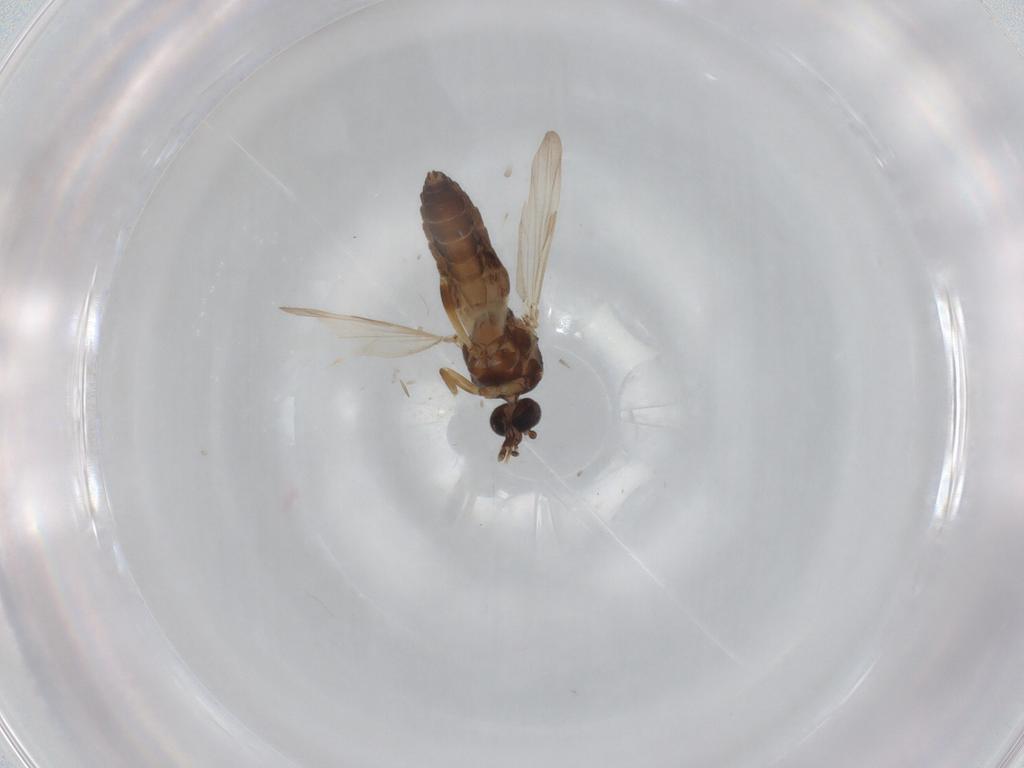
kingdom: Animalia
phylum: Arthropoda
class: Insecta
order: Diptera
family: Ceratopogonidae
